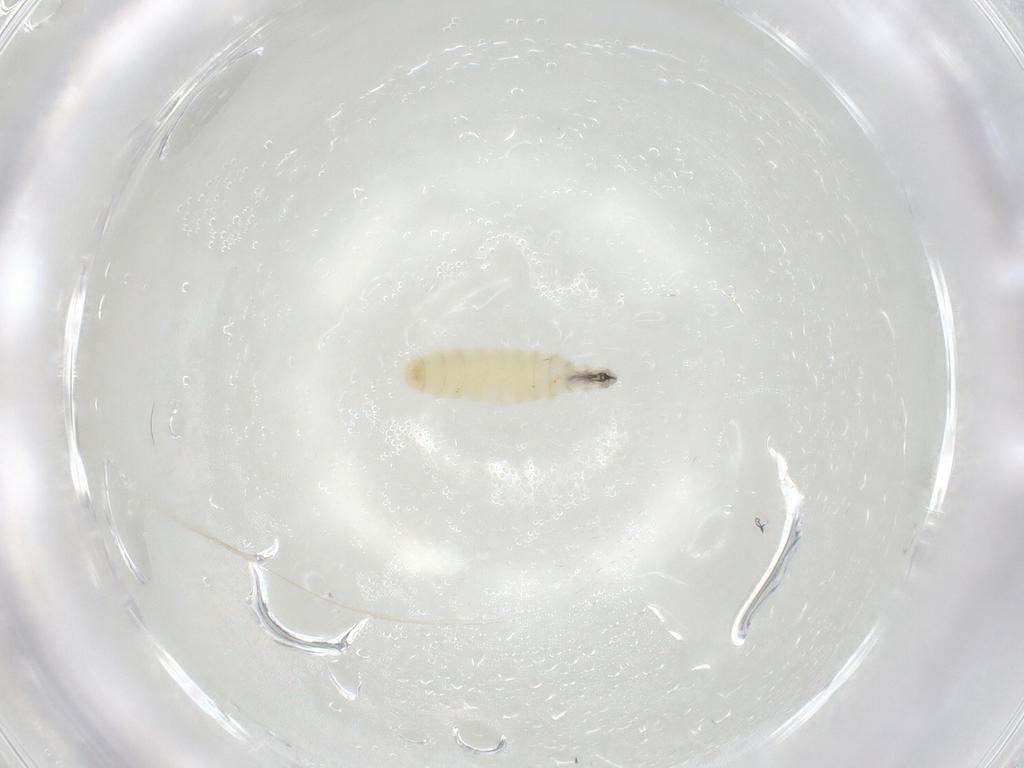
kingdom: Animalia
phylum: Arthropoda
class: Insecta
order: Diptera
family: Sarcophagidae
